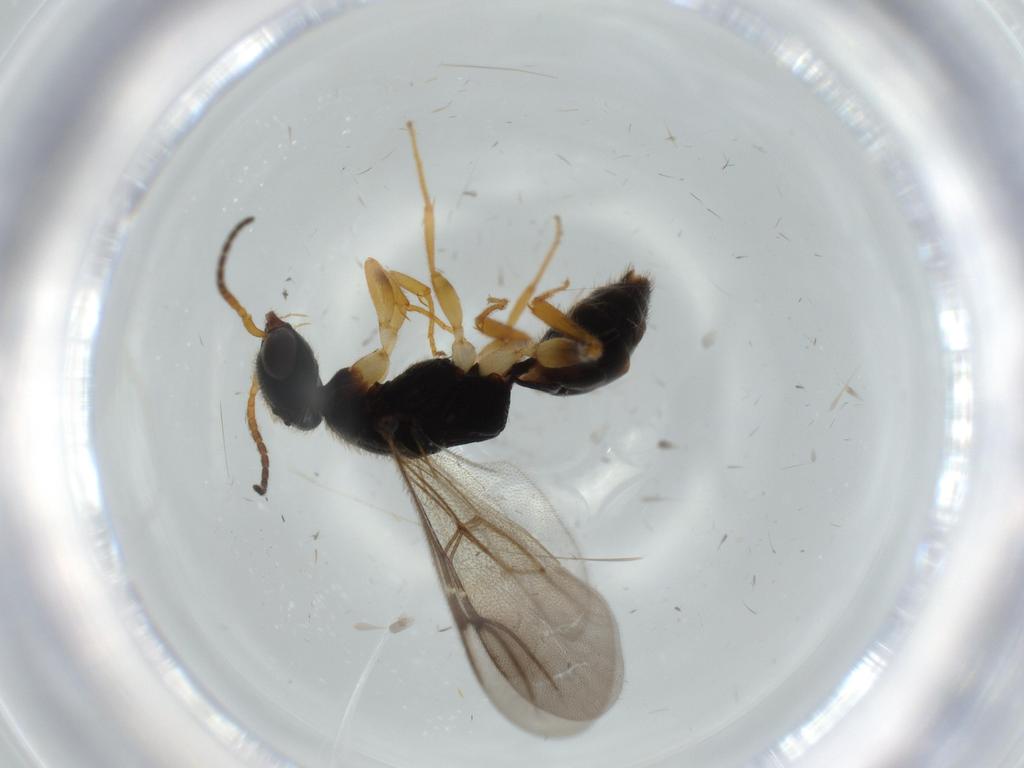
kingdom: Animalia
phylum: Arthropoda
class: Insecta
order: Hymenoptera
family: Bethylidae
